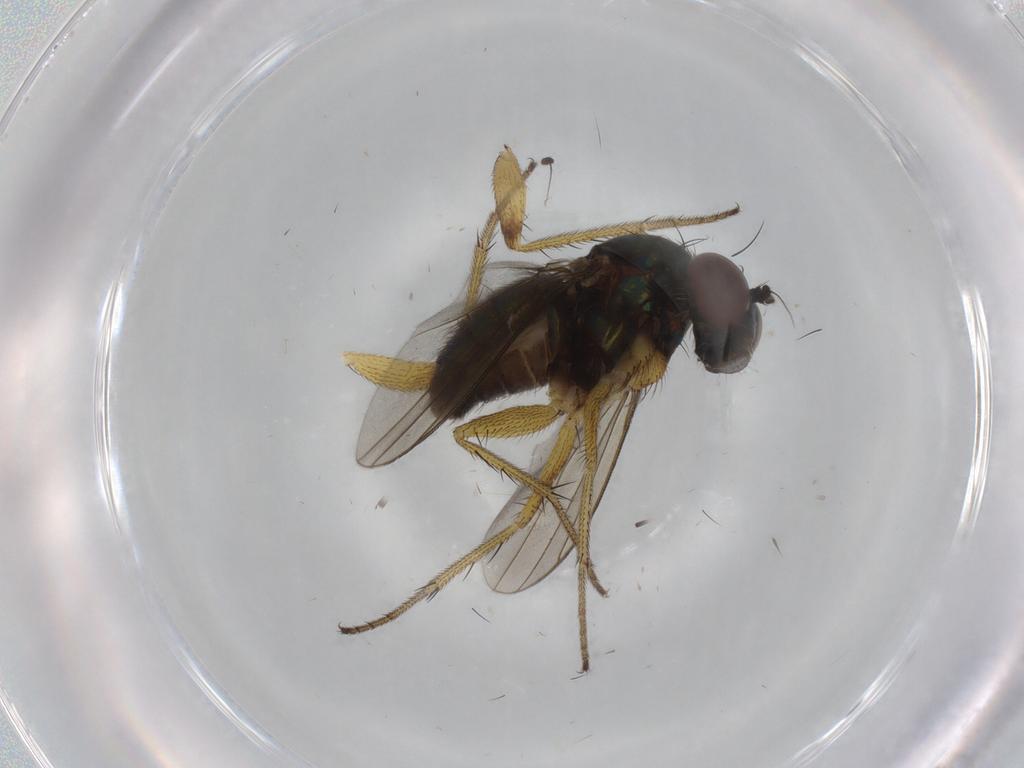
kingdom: Animalia
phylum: Arthropoda
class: Insecta
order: Diptera
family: Dolichopodidae
